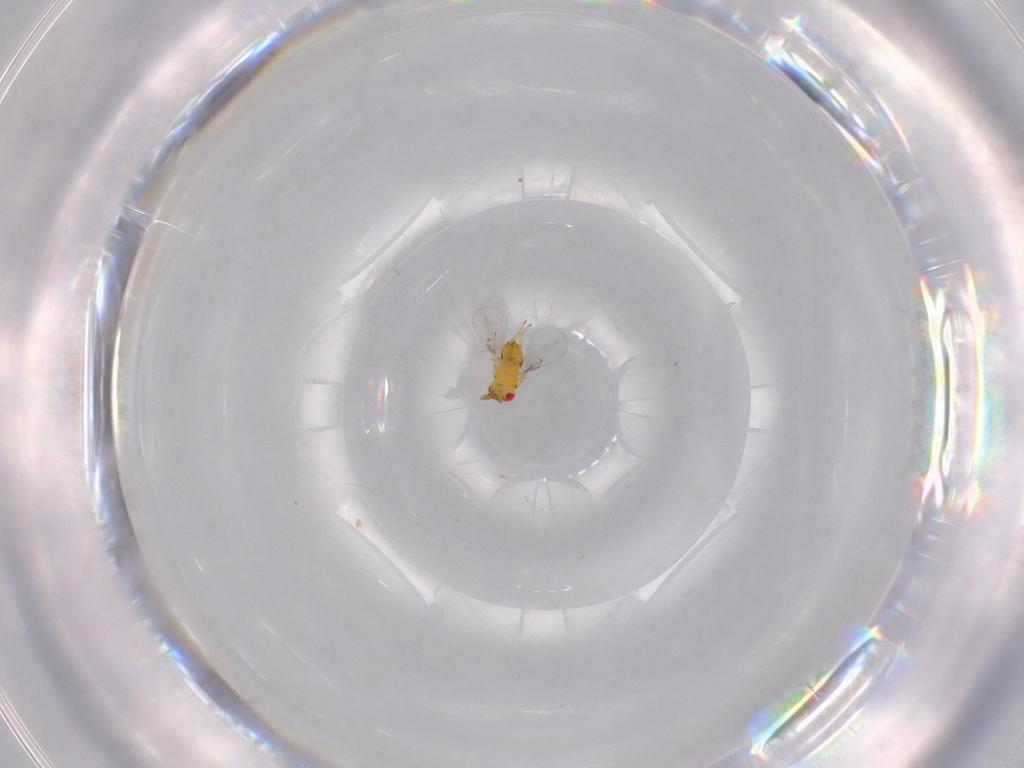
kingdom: Animalia
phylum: Arthropoda
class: Insecta
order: Hymenoptera
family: Trichogrammatidae
